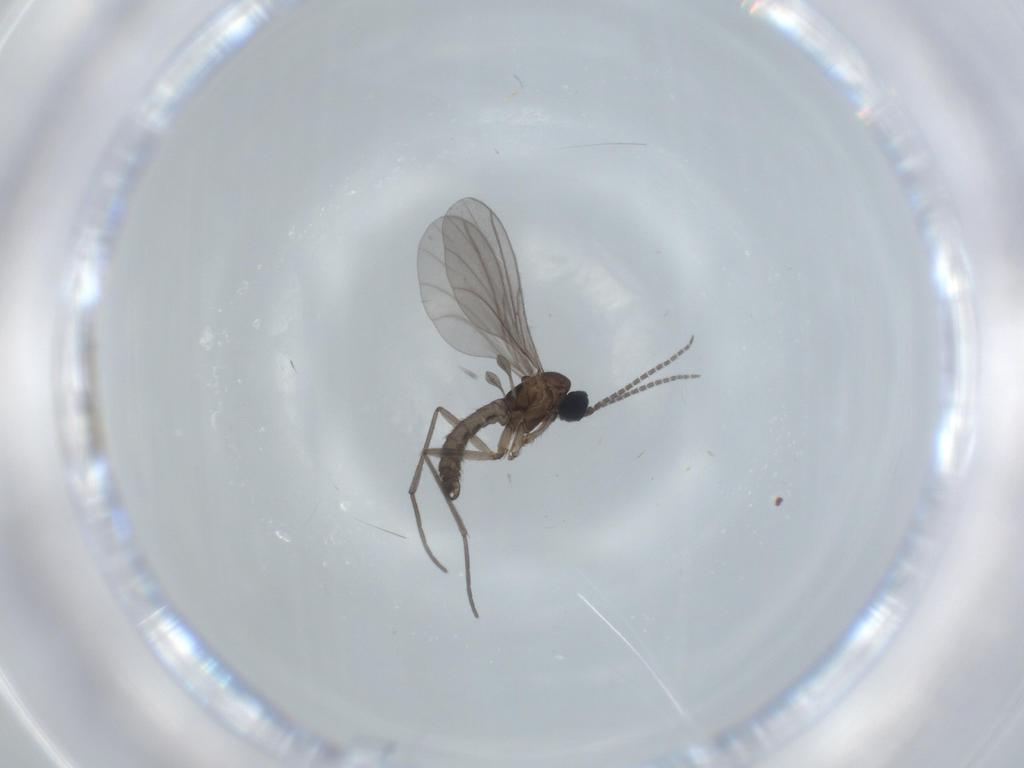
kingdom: Animalia
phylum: Arthropoda
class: Insecta
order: Diptera
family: Sciaridae
